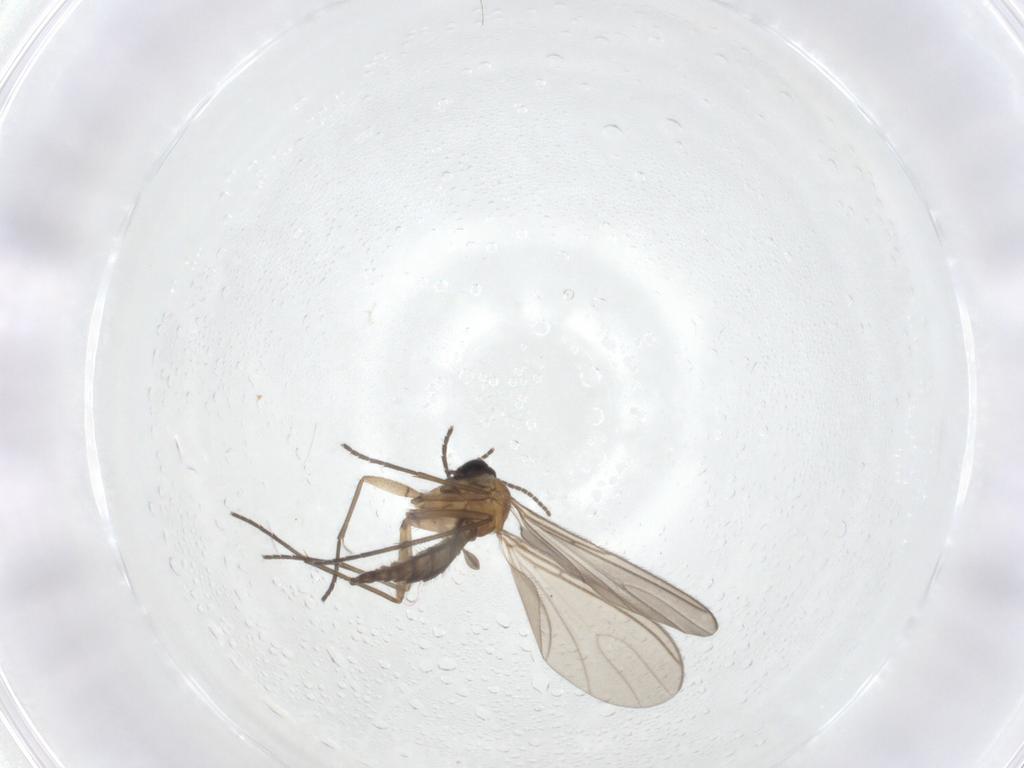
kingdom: Animalia
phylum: Arthropoda
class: Insecta
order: Diptera
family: Sciaridae
